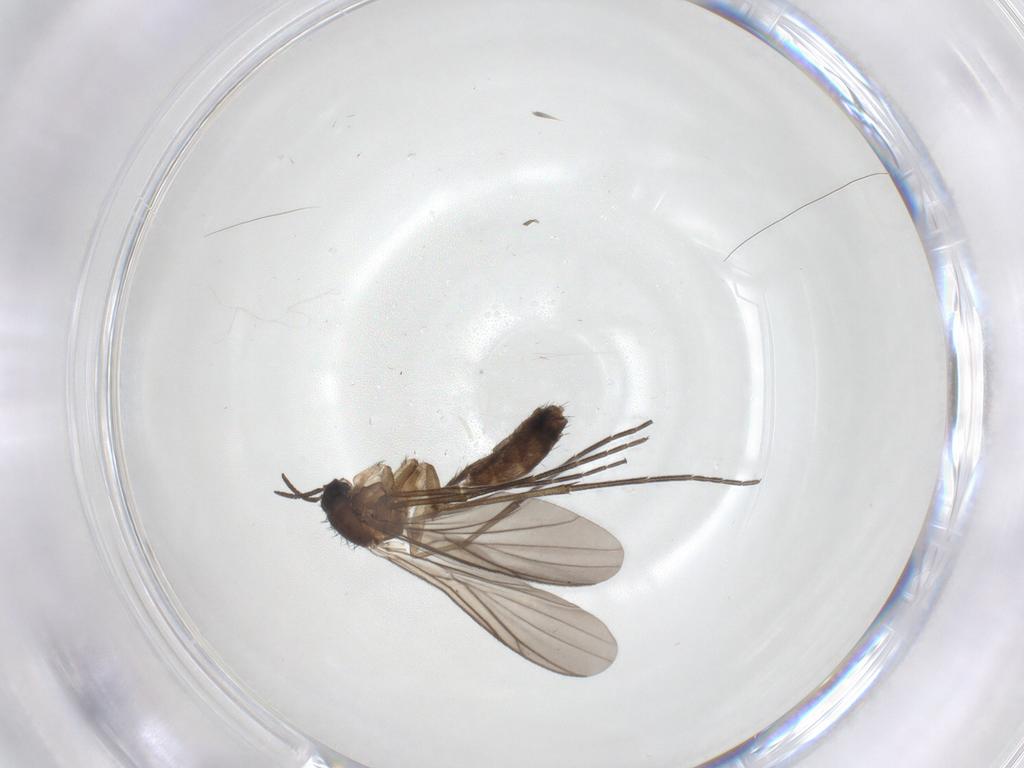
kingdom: Animalia
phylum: Arthropoda
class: Insecta
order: Diptera
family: Keroplatidae
